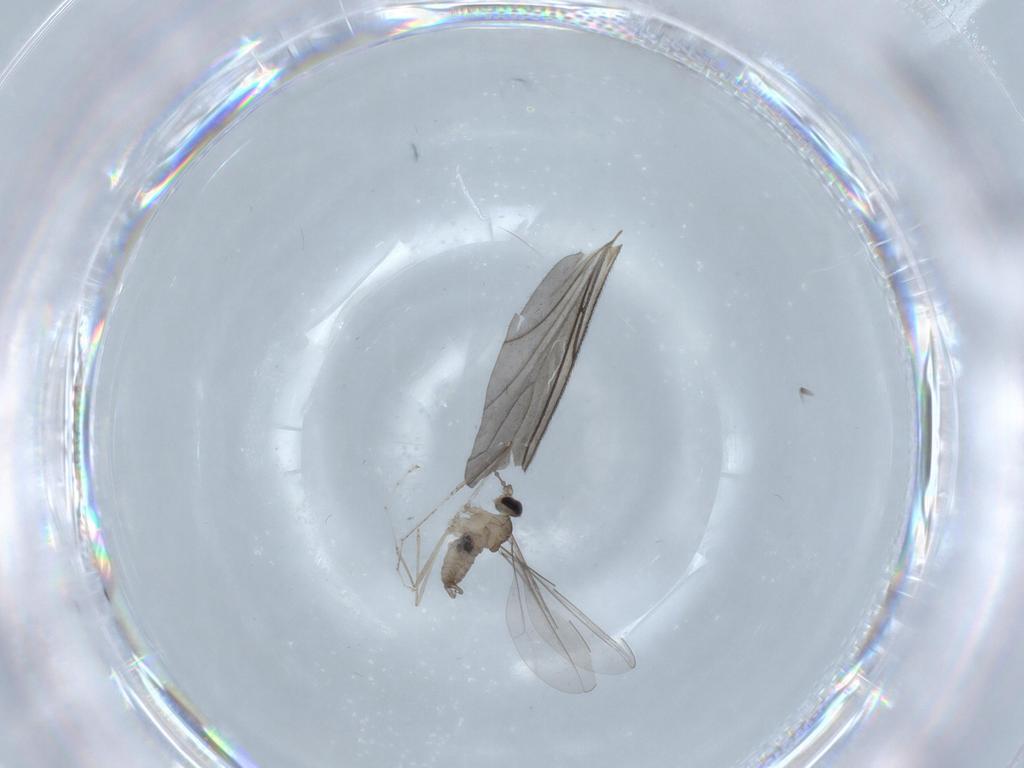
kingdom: Animalia
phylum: Arthropoda
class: Insecta
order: Diptera
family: Cecidomyiidae
